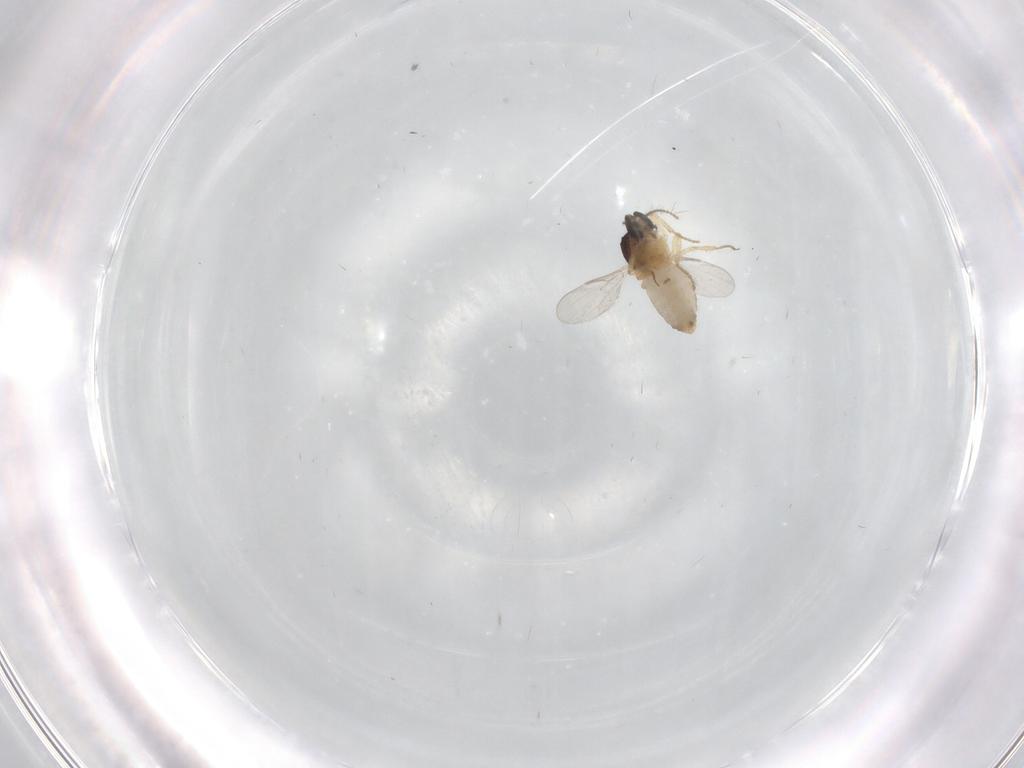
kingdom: Animalia
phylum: Arthropoda
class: Insecta
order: Diptera
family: Ceratopogonidae
